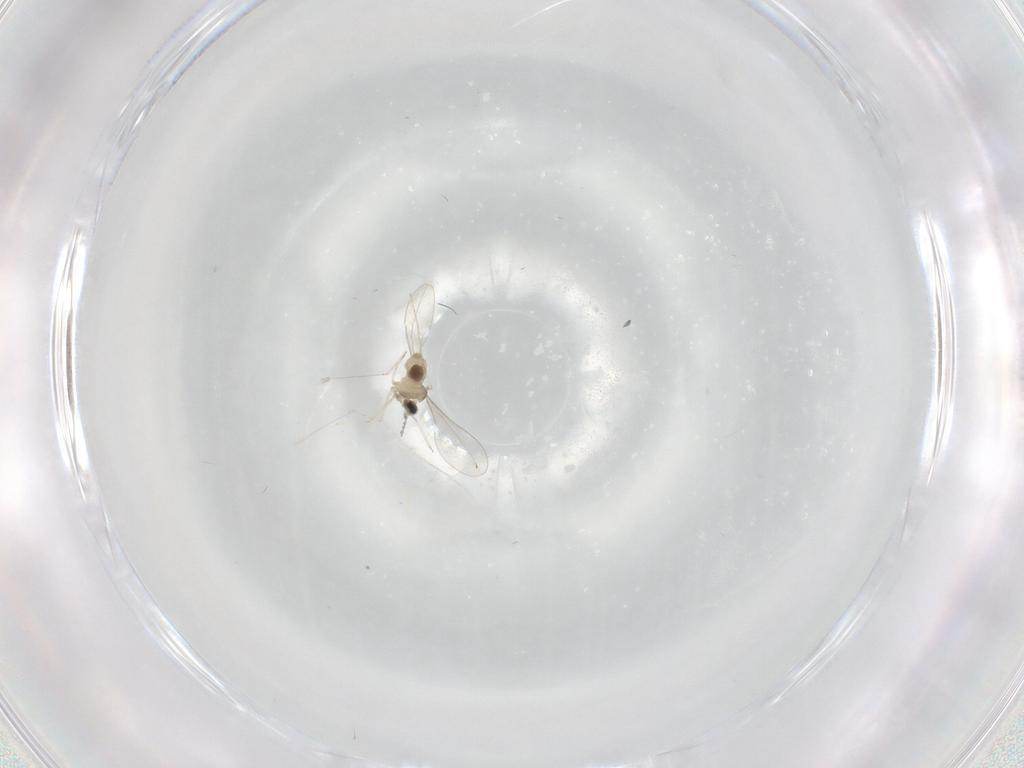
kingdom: Animalia
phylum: Arthropoda
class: Insecta
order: Diptera
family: Cecidomyiidae
